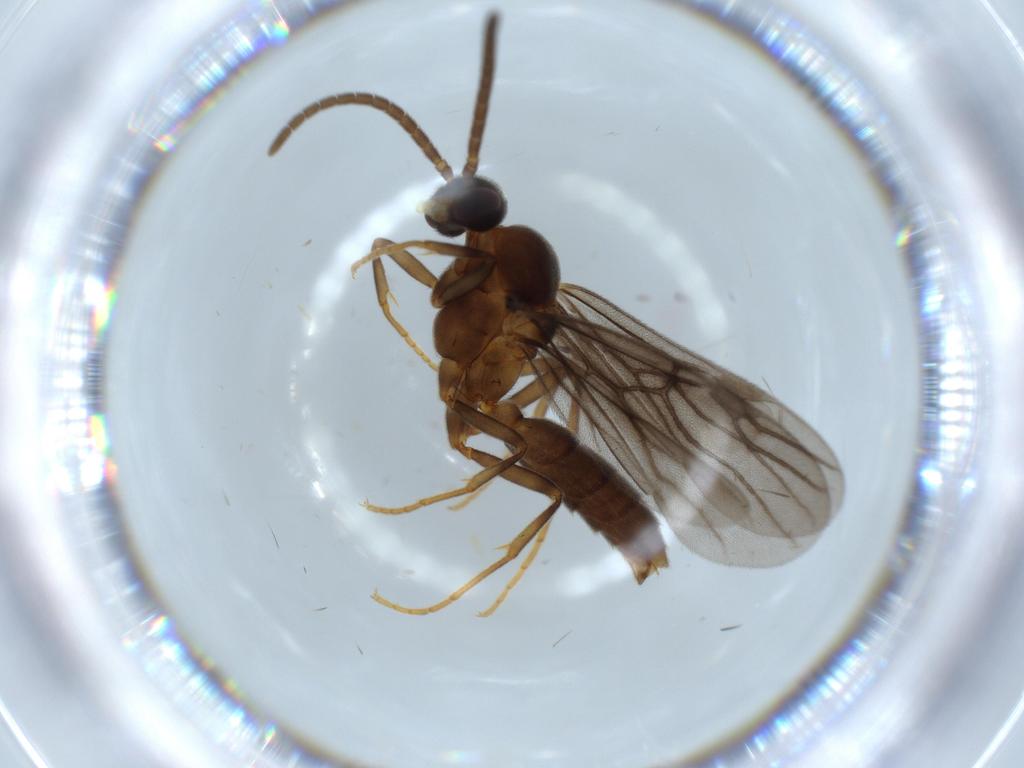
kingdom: Animalia
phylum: Arthropoda
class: Insecta
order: Hymenoptera
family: Formicidae
